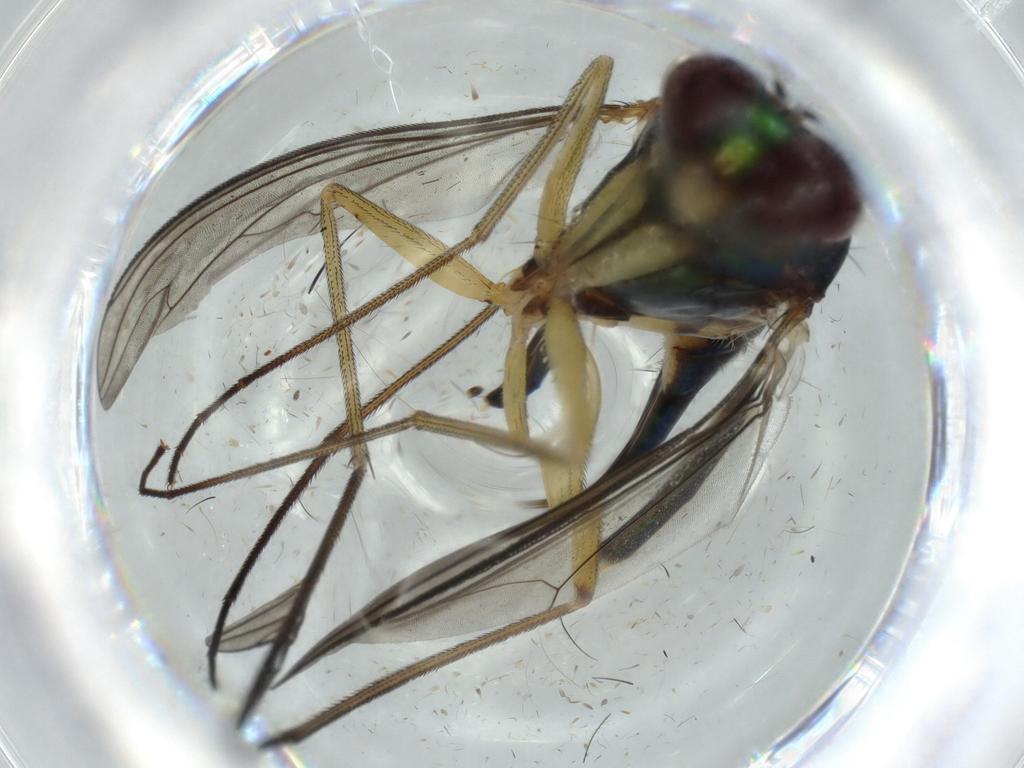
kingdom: Animalia
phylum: Arthropoda
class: Insecta
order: Diptera
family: Dolichopodidae
